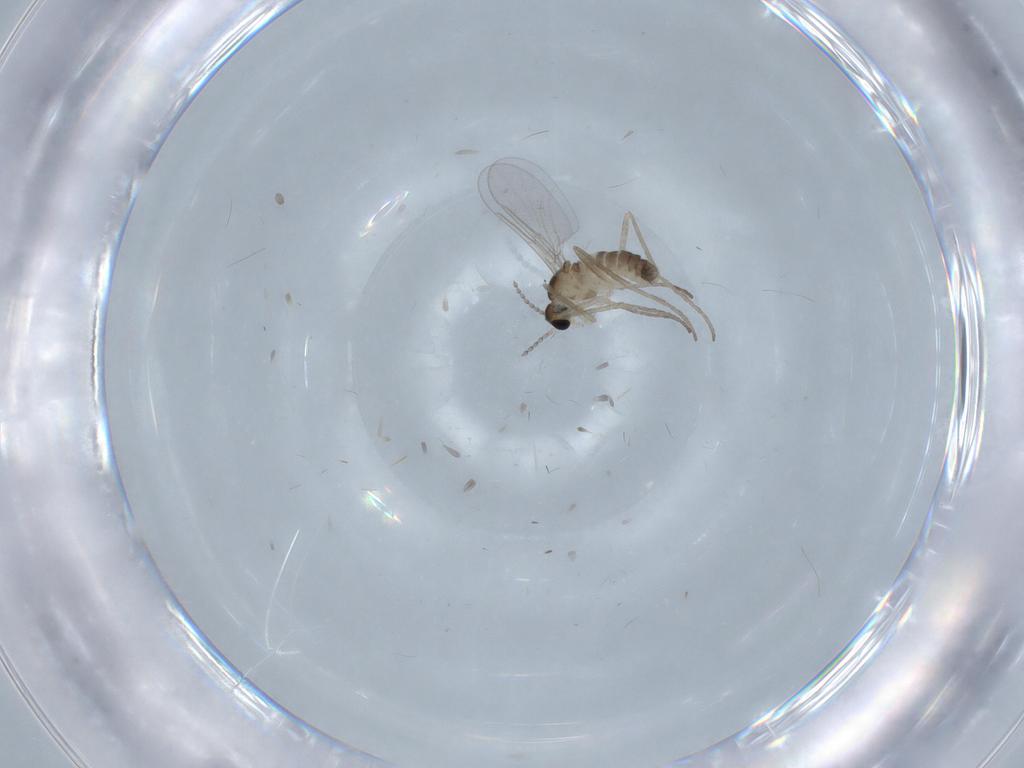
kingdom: Animalia
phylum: Arthropoda
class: Insecta
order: Diptera
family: Cecidomyiidae
